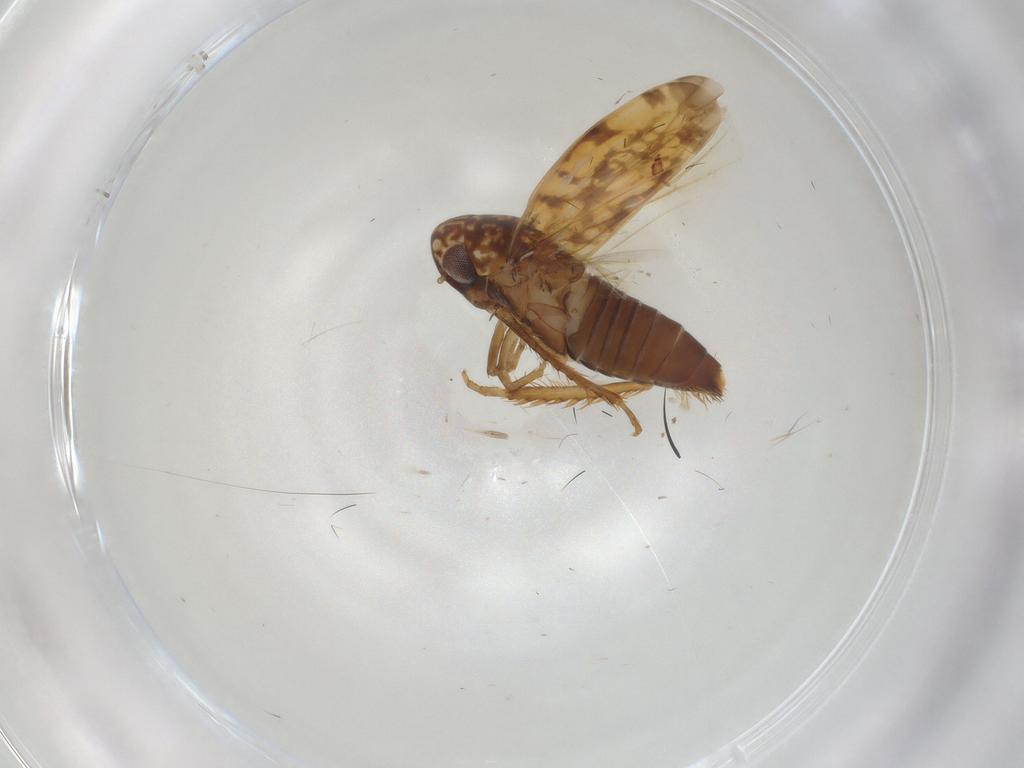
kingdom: Animalia
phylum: Arthropoda
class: Insecta
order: Hemiptera
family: Cicadellidae
